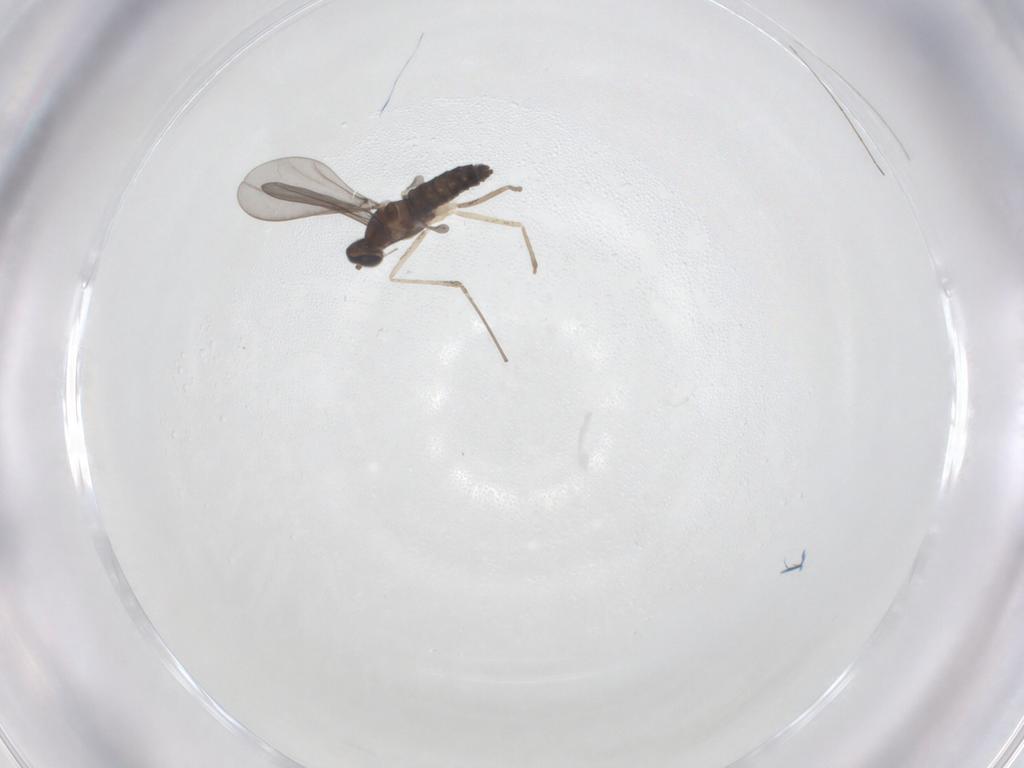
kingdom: Animalia
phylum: Arthropoda
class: Insecta
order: Diptera
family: Cecidomyiidae
